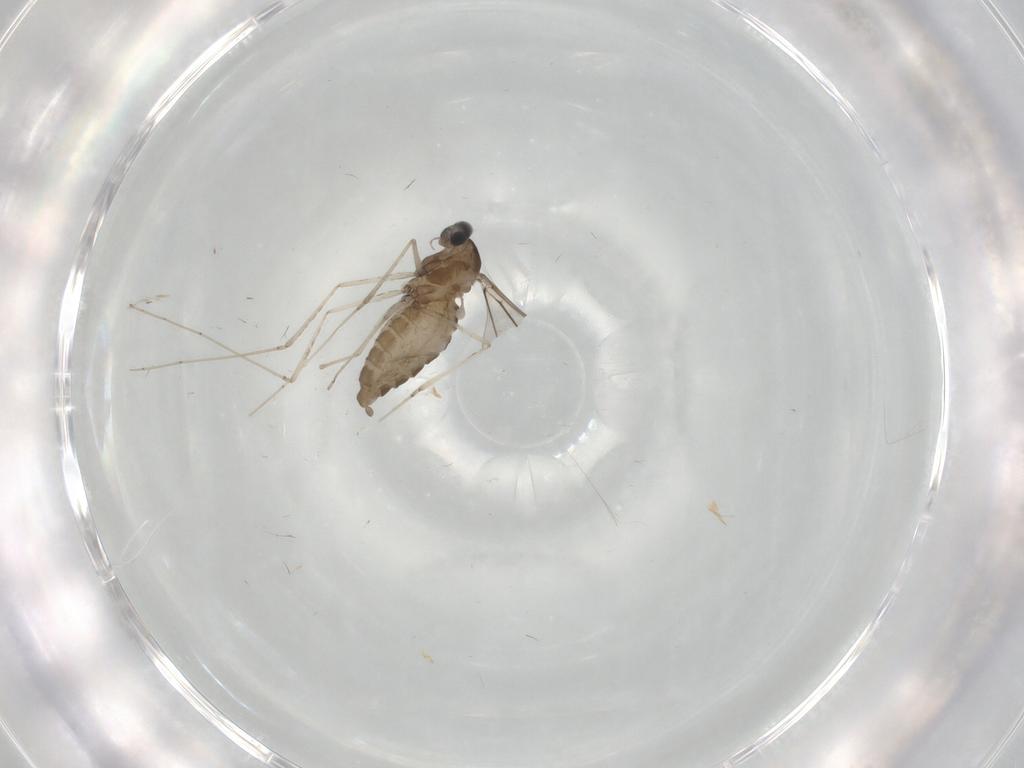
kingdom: Animalia
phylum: Arthropoda
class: Insecta
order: Diptera
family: Cecidomyiidae
